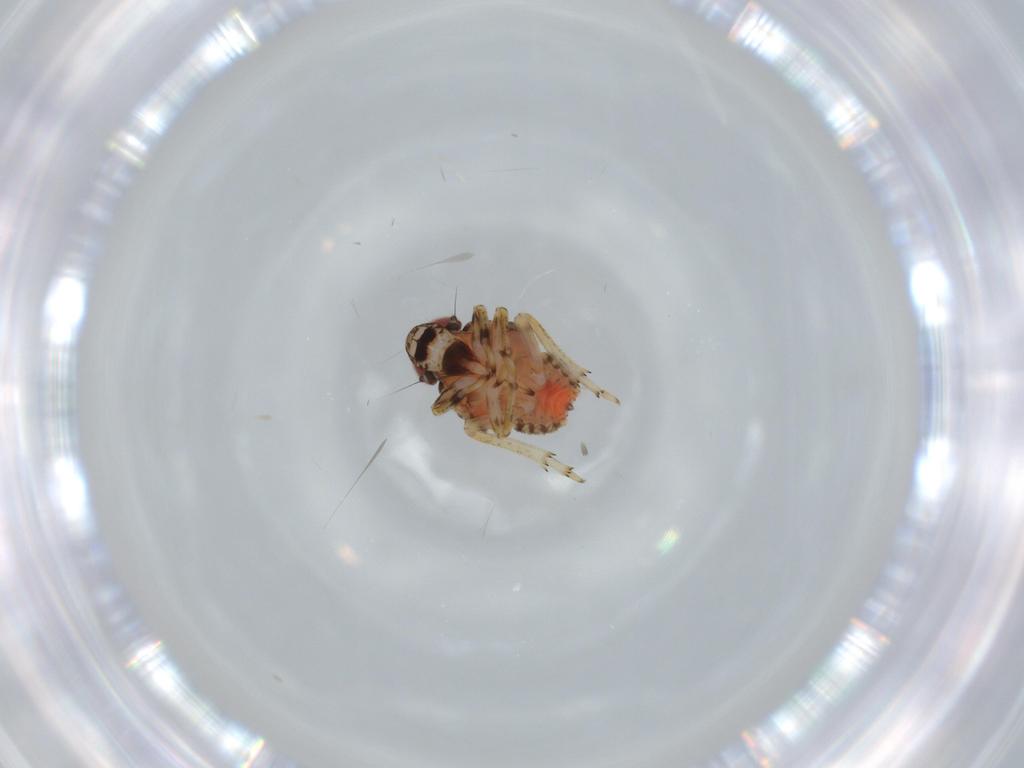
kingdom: Animalia
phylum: Arthropoda
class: Insecta
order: Hemiptera
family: Issidae
